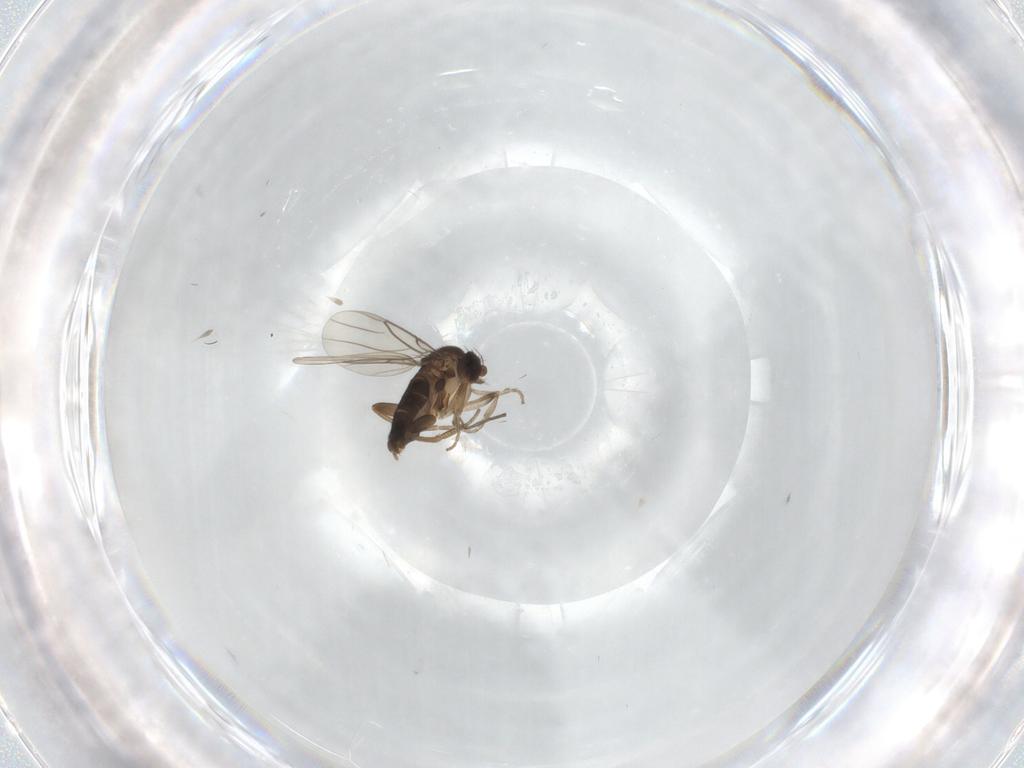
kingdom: Animalia
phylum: Arthropoda
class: Insecta
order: Diptera
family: Phoridae
